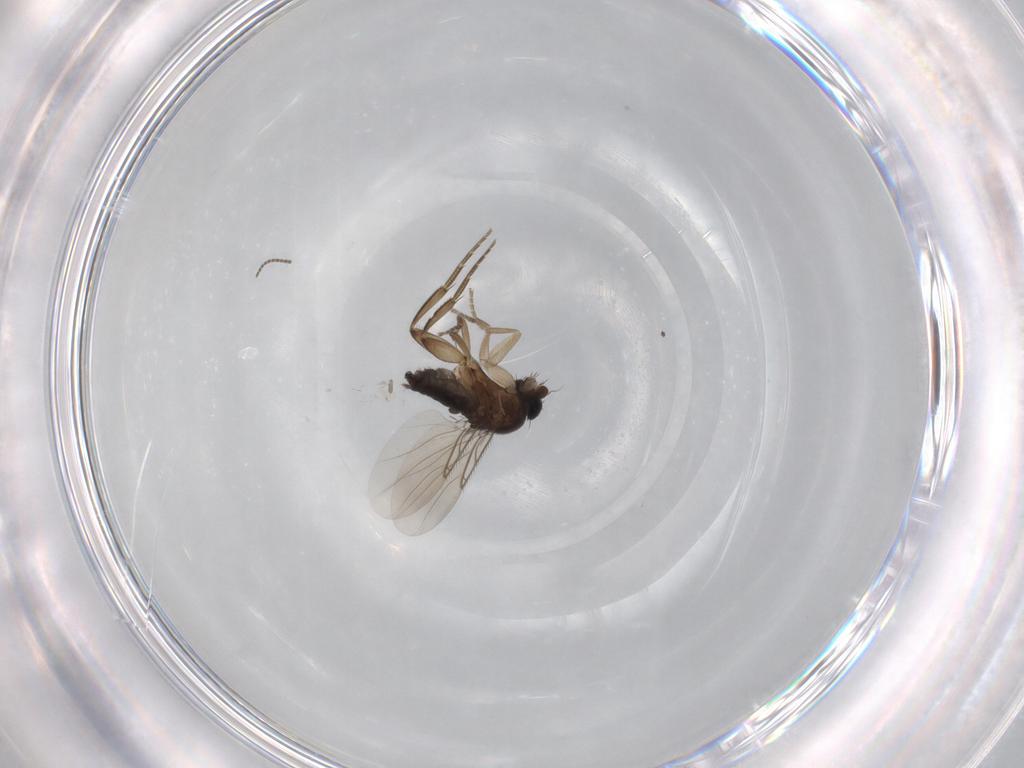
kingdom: Animalia
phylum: Arthropoda
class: Insecta
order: Diptera
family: Phoridae
